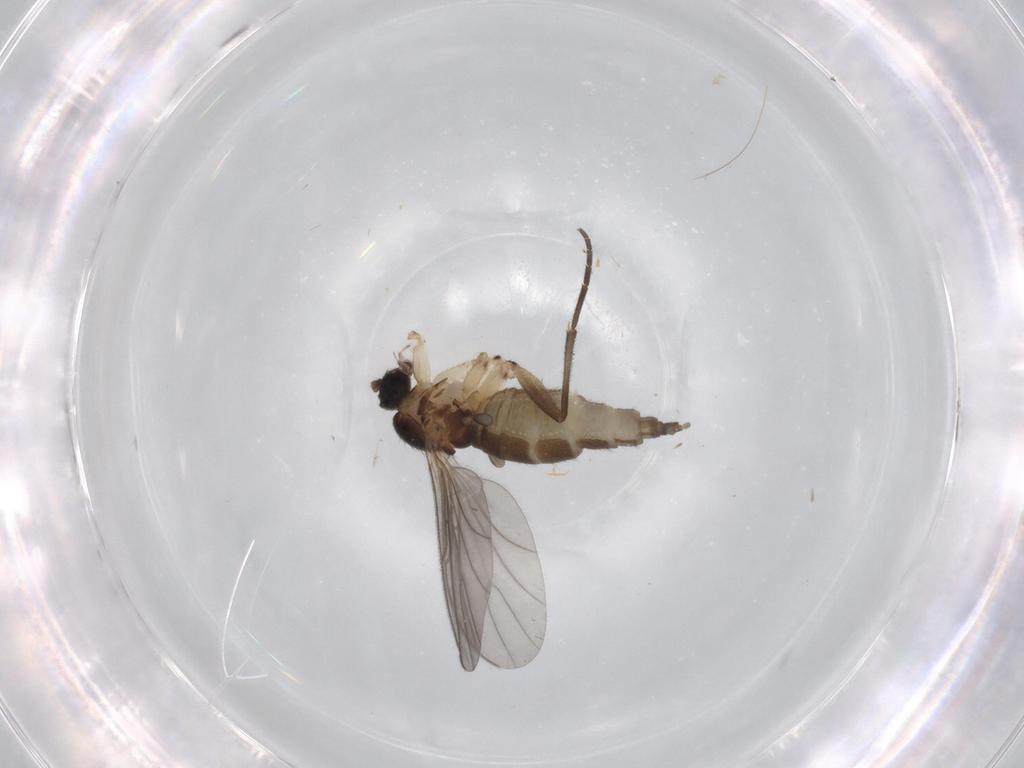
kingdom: Animalia
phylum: Arthropoda
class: Insecta
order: Diptera
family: Sciaridae
